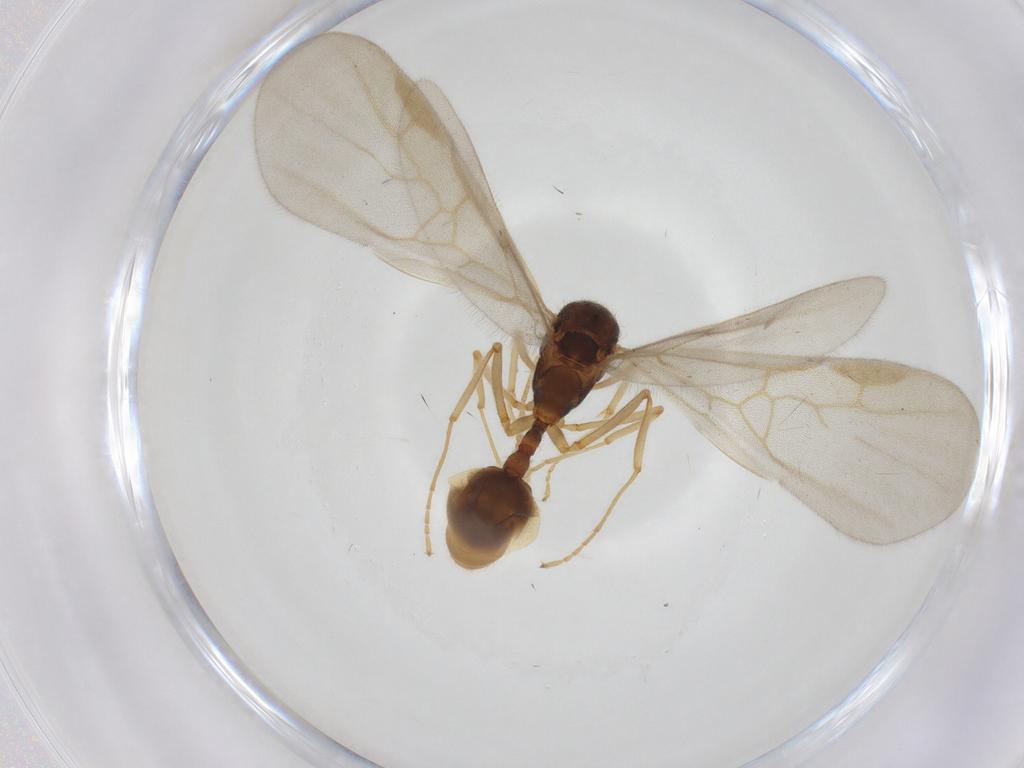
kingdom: Animalia
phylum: Arthropoda
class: Insecta
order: Hymenoptera
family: Formicidae
